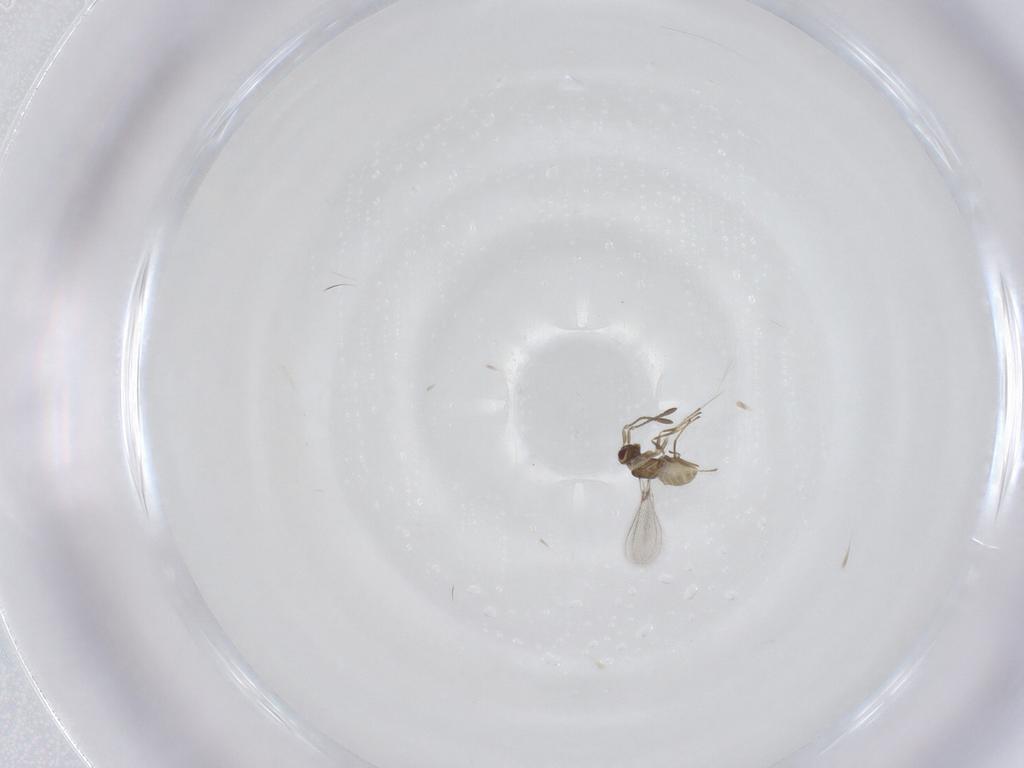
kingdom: Animalia
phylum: Arthropoda
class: Insecta
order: Hymenoptera
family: Mymaridae
